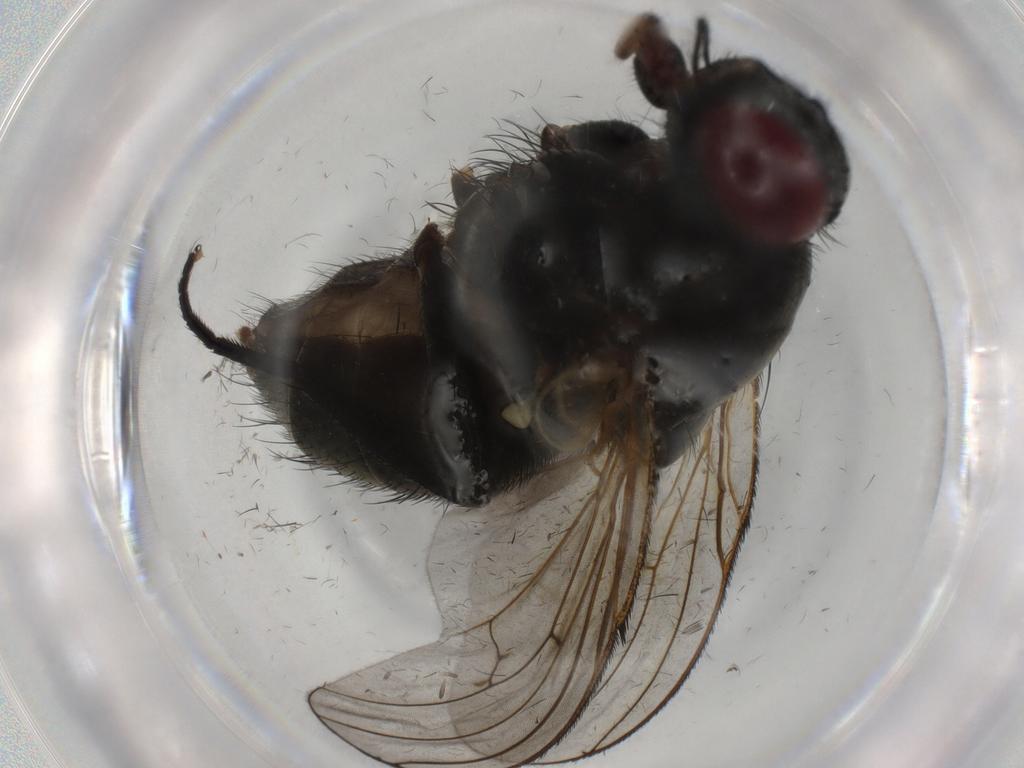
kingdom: Animalia
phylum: Arthropoda
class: Insecta
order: Diptera
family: Muscidae
